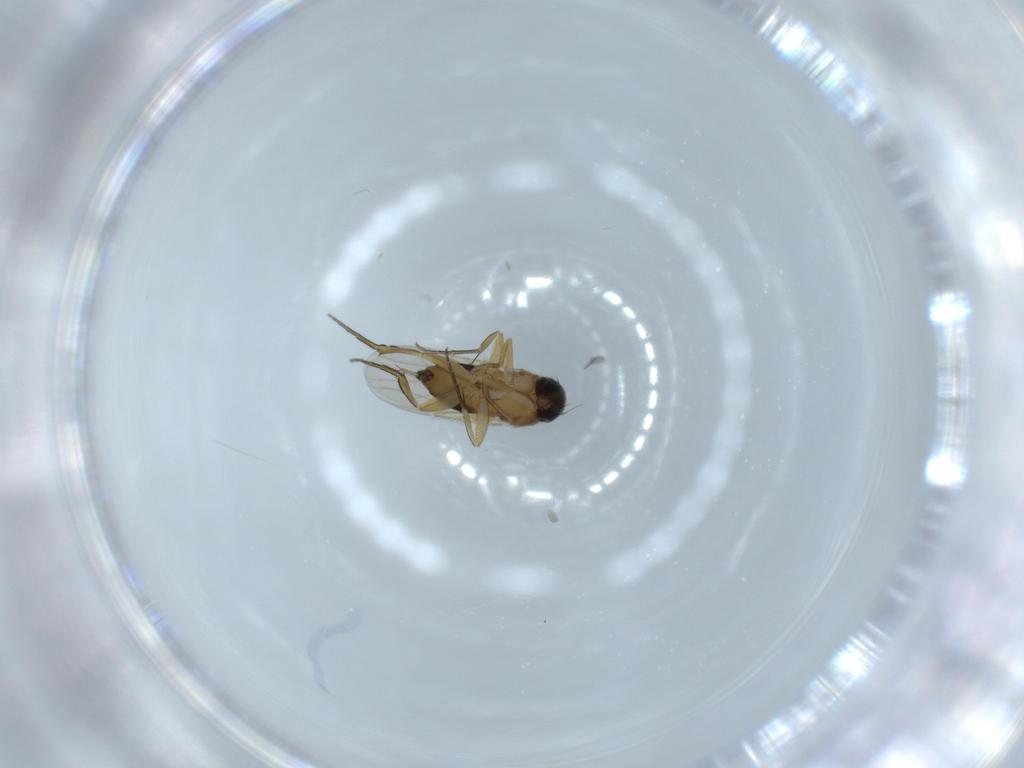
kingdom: Animalia
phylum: Arthropoda
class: Insecta
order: Diptera
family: Phoridae
